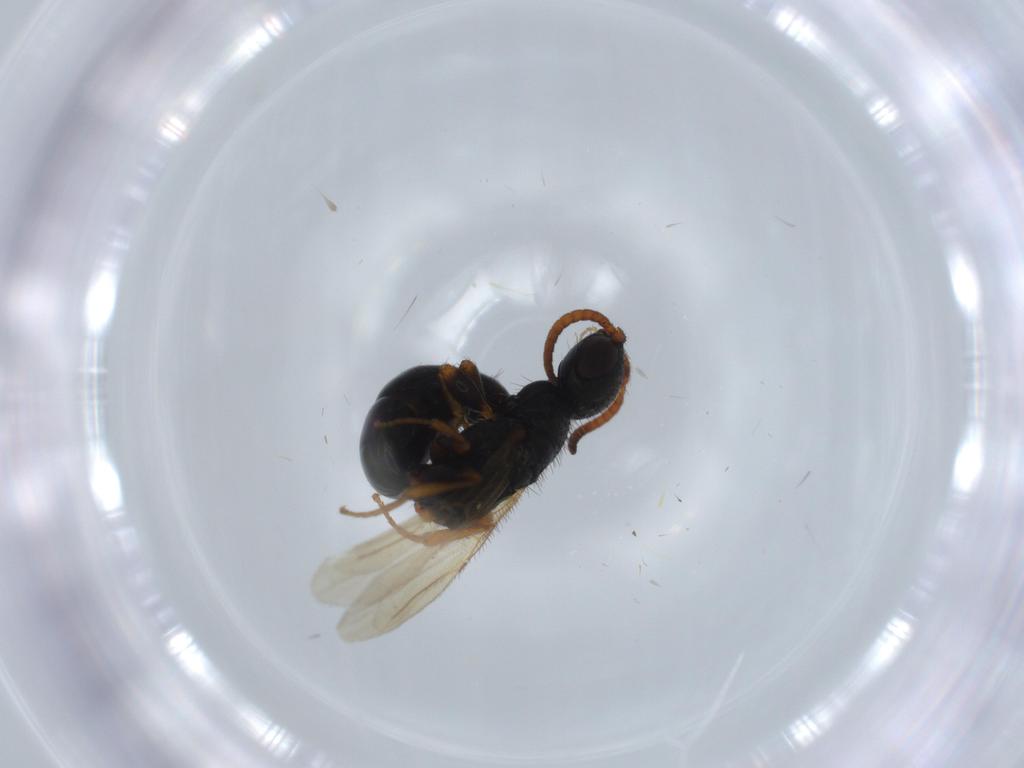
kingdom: Animalia
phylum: Arthropoda
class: Insecta
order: Hymenoptera
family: Bethylidae
